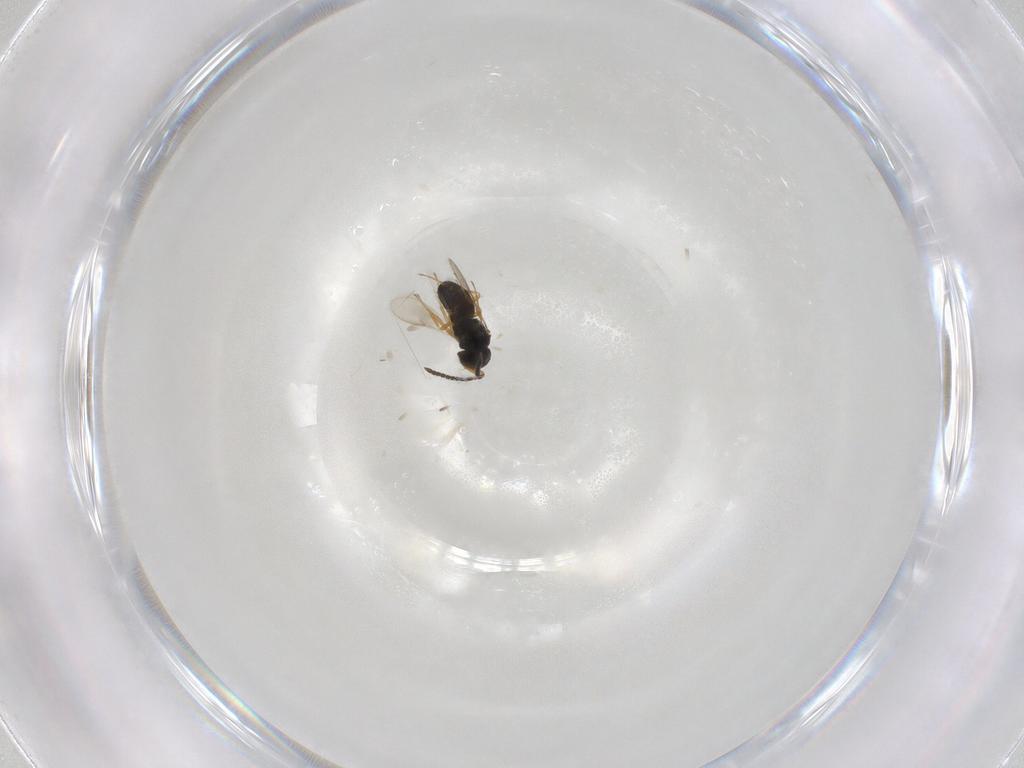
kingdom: Animalia
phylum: Arthropoda
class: Insecta
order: Hymenoptera
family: Scelionidae
